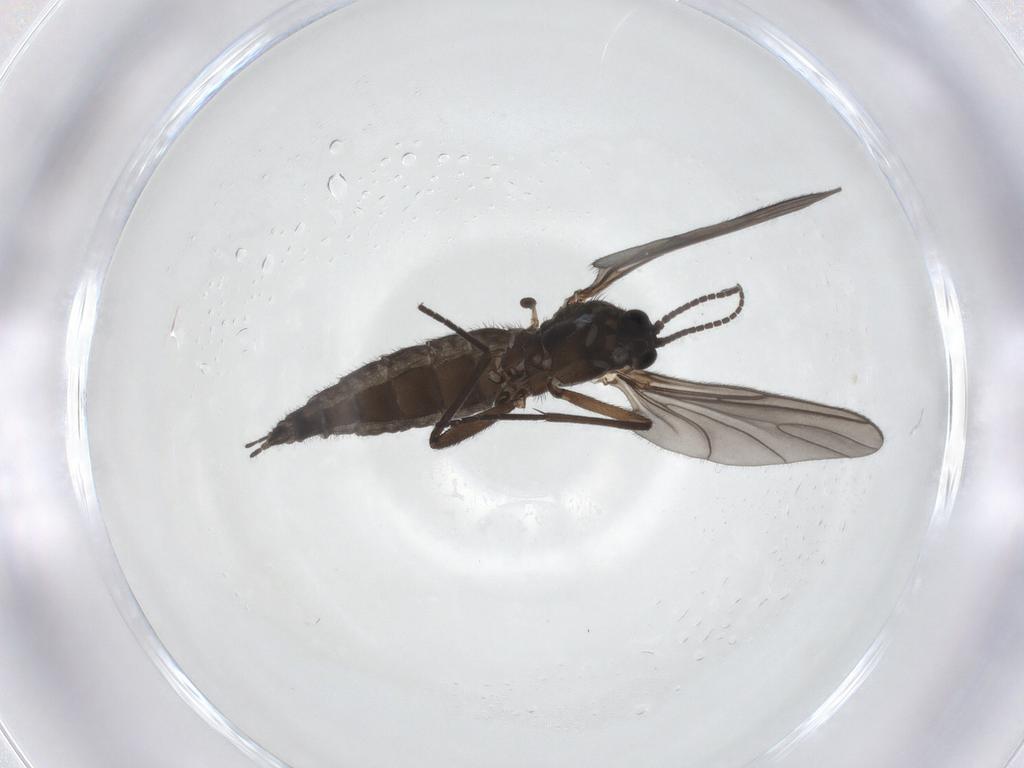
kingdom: Animalia
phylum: Arthropoda
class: Insecta
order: Diptera
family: Sciaridae
